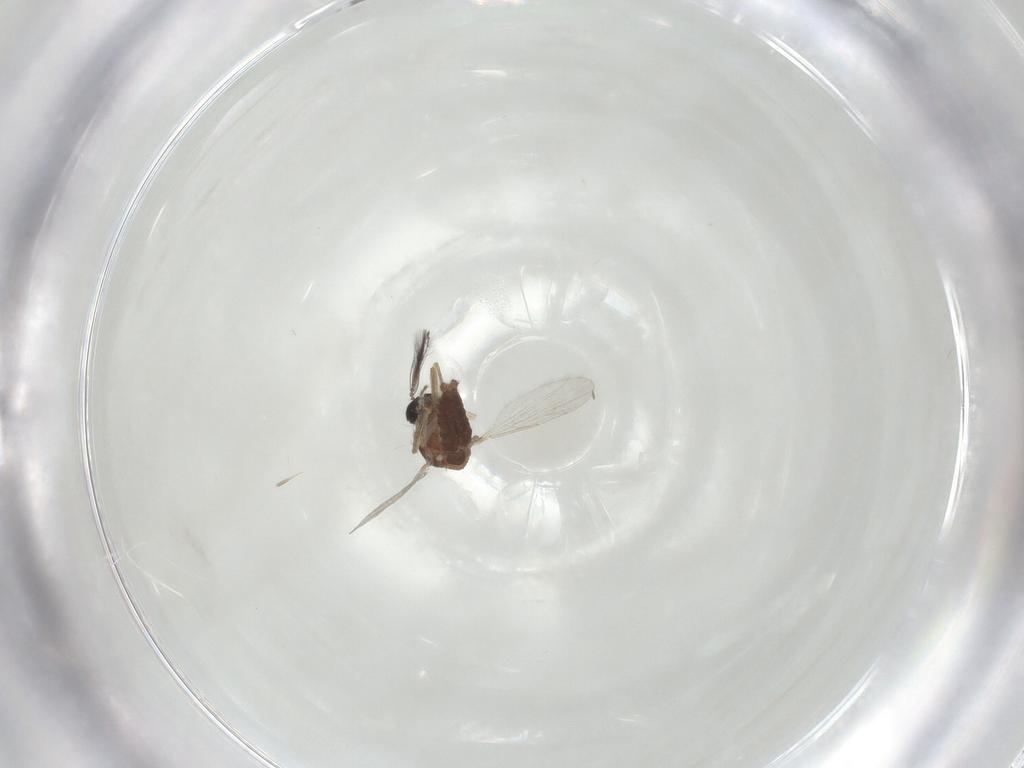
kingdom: Animalia
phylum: Arthropoda
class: Insecta
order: Diptera
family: Ceratopogonidae
